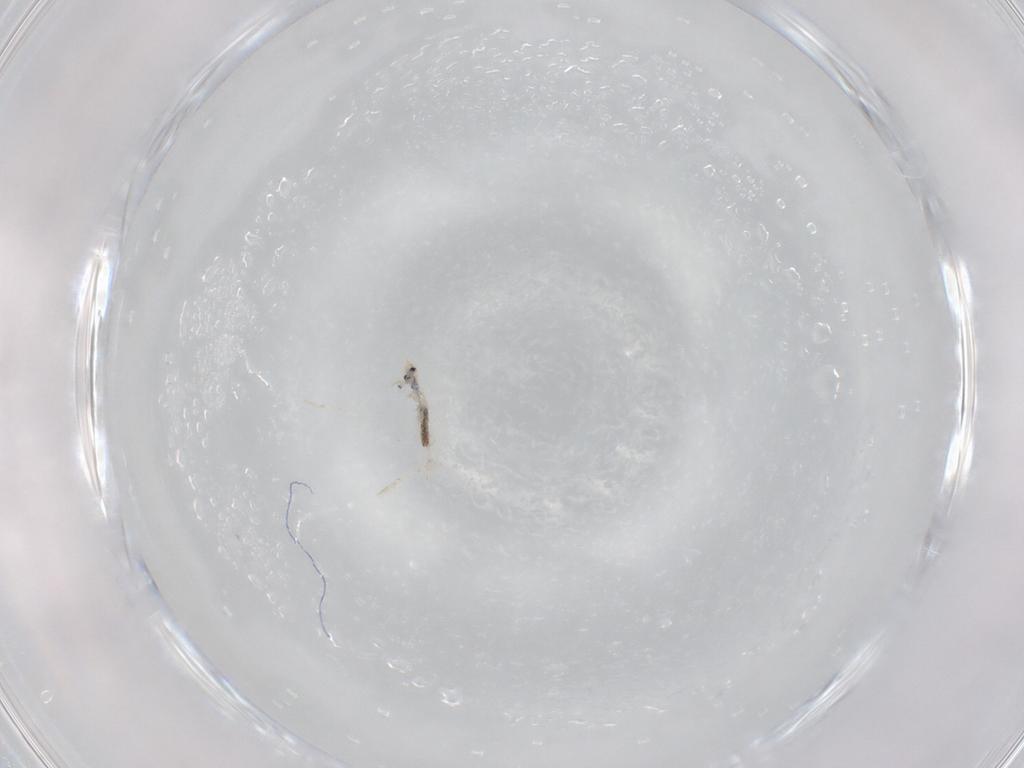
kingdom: Animalia
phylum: Arthropoda
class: Collembola
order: Entomobryomorpha
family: Entomobryidae
